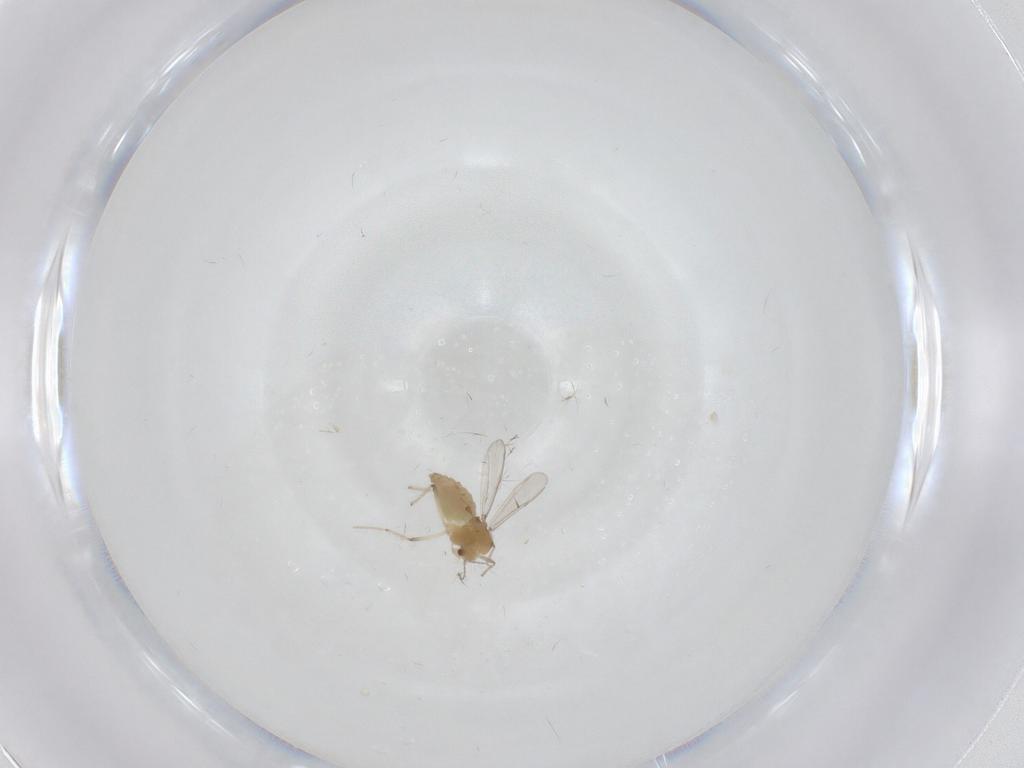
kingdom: Animalia
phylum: Arthropoda
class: Insecta
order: Diptera
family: Chironomidae
